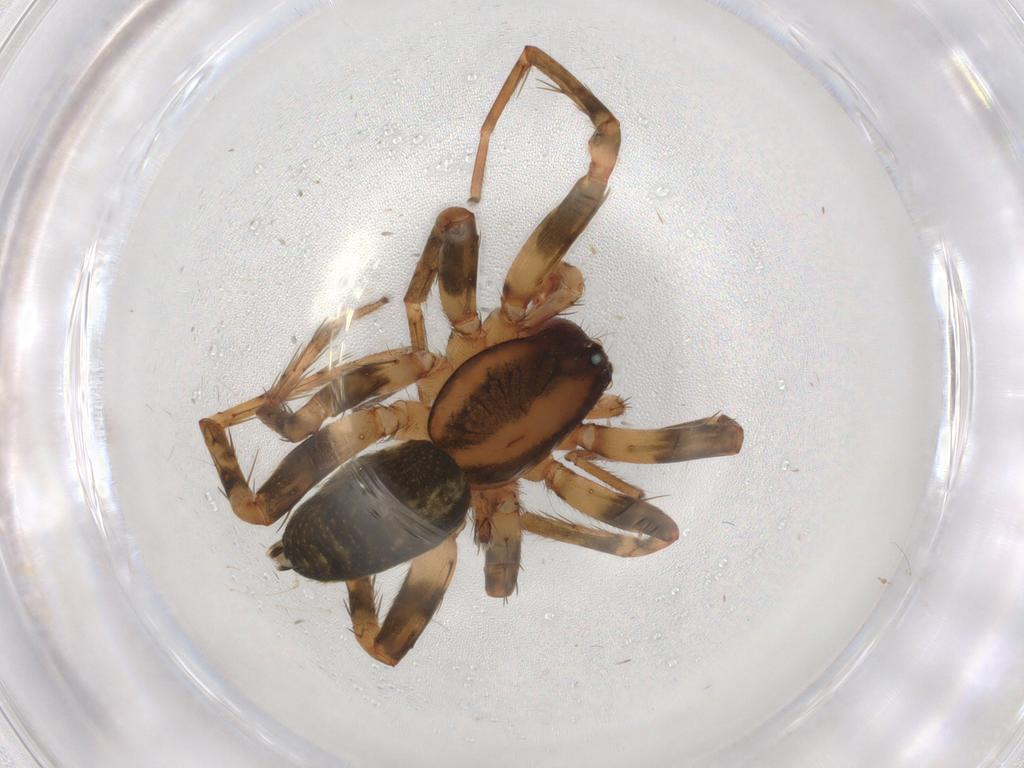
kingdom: Animalia
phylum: Arthropoda
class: Arachnida
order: Araneae
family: Anyphaenidae
